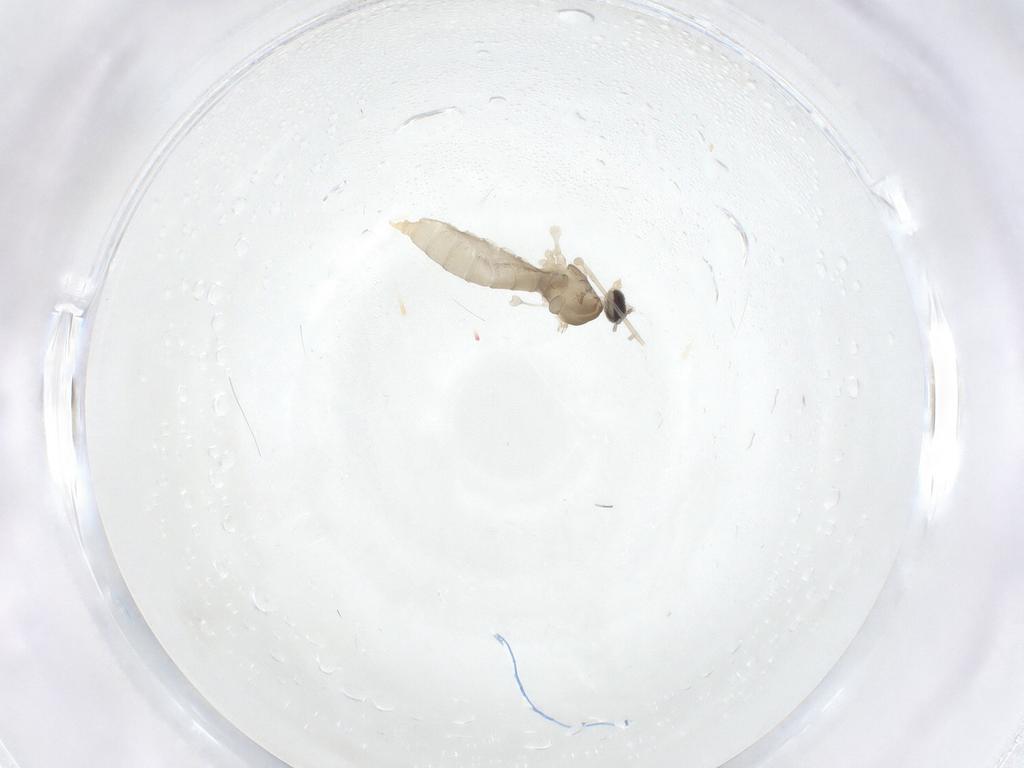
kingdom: Animalia
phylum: Arthropoda
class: Insecta
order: Diptera
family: Cecidomyiidae
